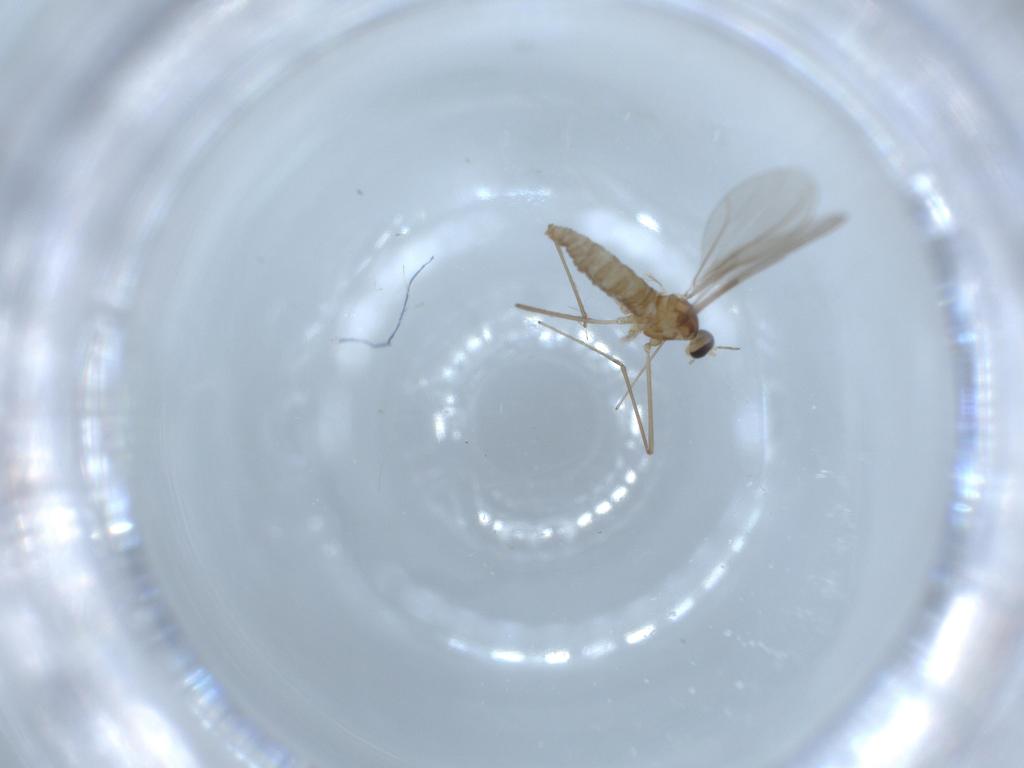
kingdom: Animalia
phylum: Arthropoda
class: Insecta
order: Diptera
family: Cecidomyiidae
